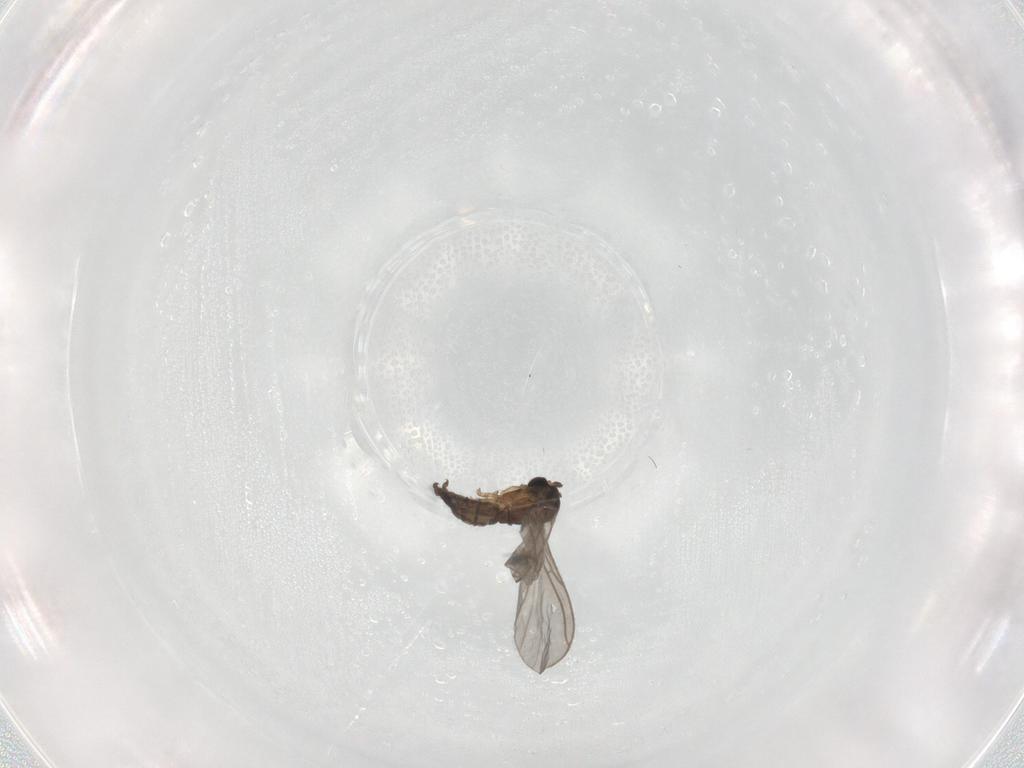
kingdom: Animalia
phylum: Arthropoda
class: Insecta
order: Diptera
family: Sciaridae
